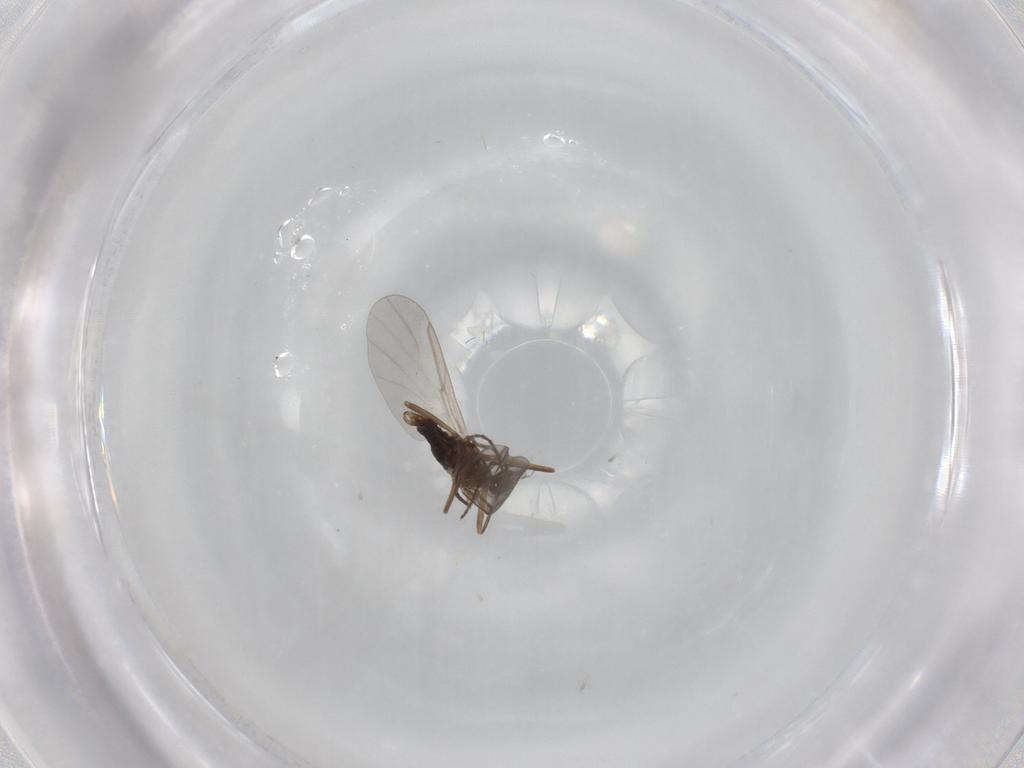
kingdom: Animalia
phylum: Arthropoda
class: Insecta
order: Diptera
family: Cecidomyiidae
